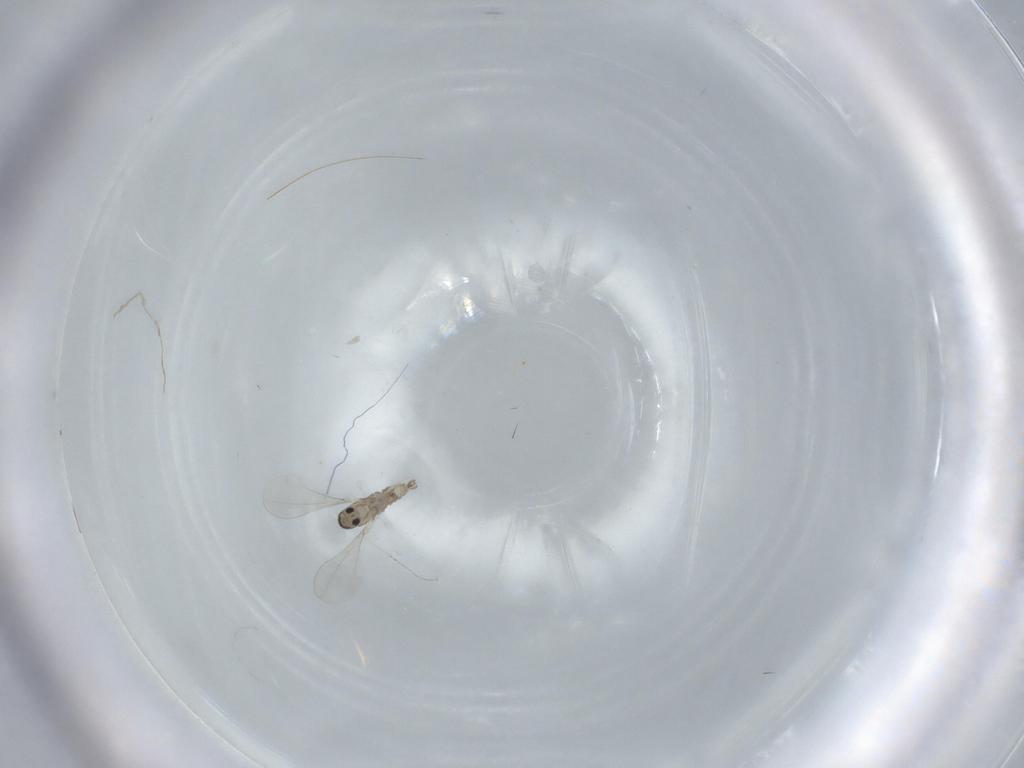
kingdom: Animalia
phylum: Arthropoda
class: Insecta
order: Diptera
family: Cecidomyiidae
